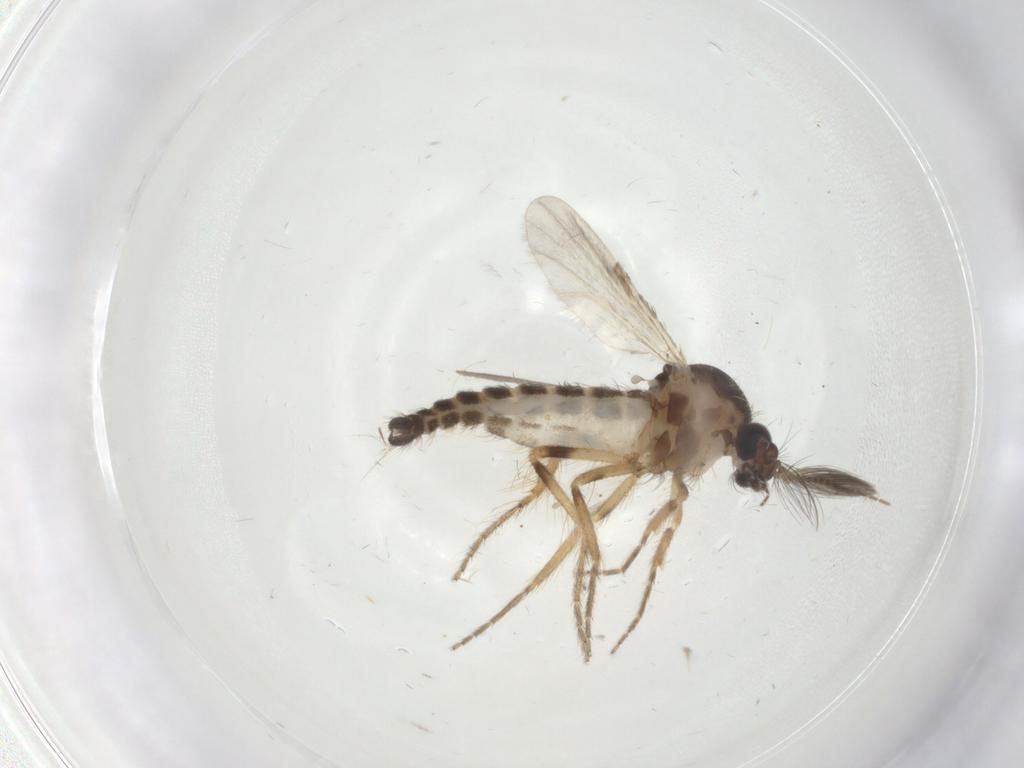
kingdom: Animalia
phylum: Arthropoda
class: Insecta
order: Diptera
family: Ceratopogonidae
